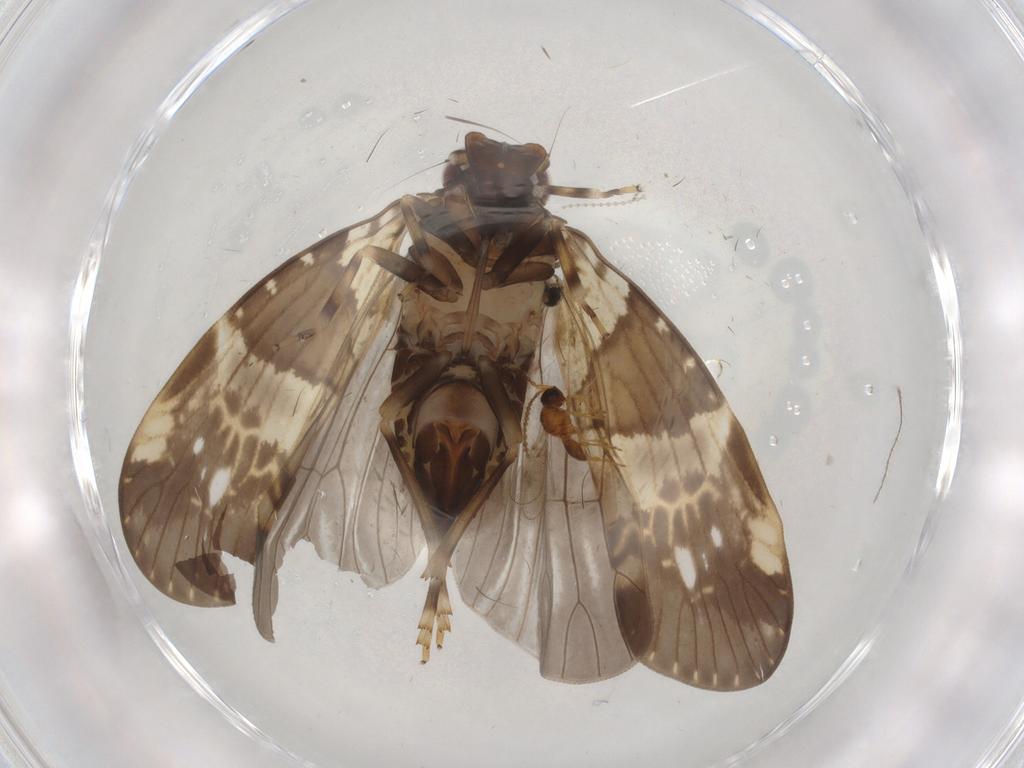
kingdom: Animalia
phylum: Arthropoda
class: Insecta
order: Hemiptera
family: Cixiidae
